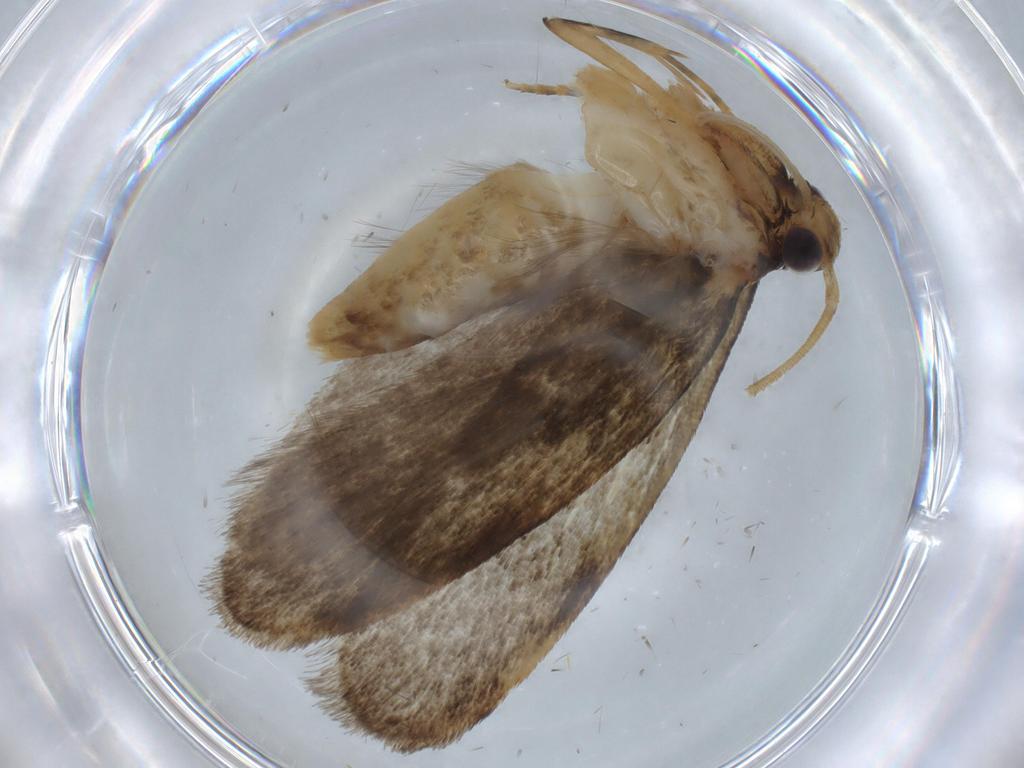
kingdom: Animalia
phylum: Arthropoda
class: Insecta
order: Lepidoptera
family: Oecophoridae
